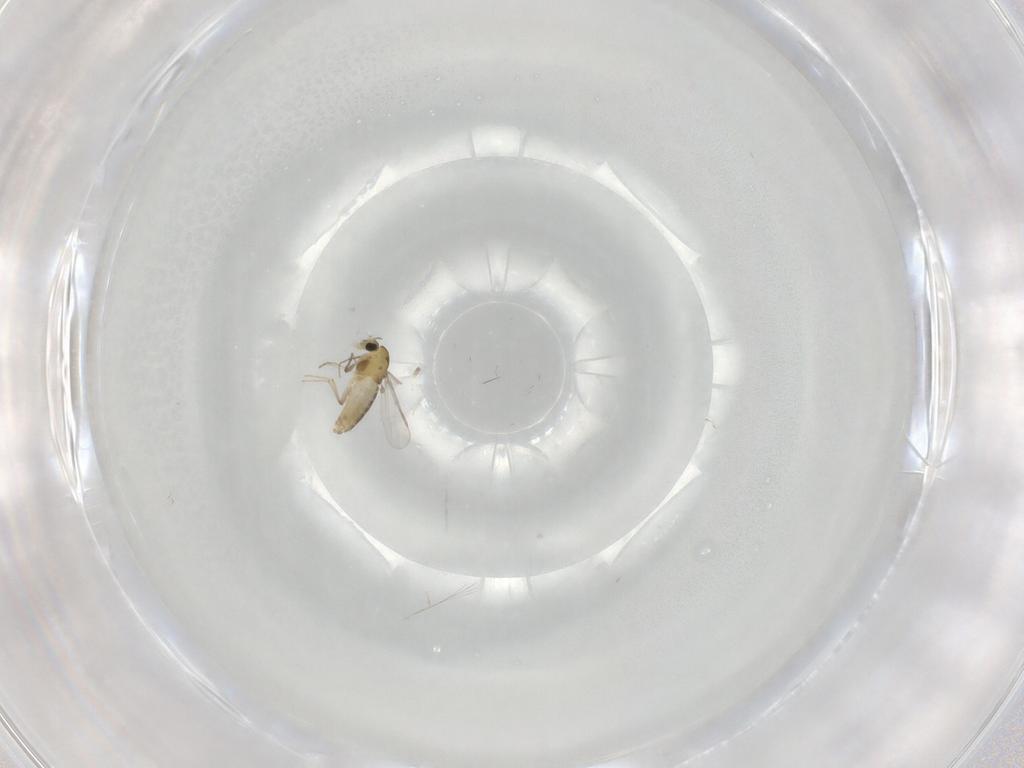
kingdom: Animalia
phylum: Arthropoda
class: Insecta
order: Diptera
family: Chironomidae
